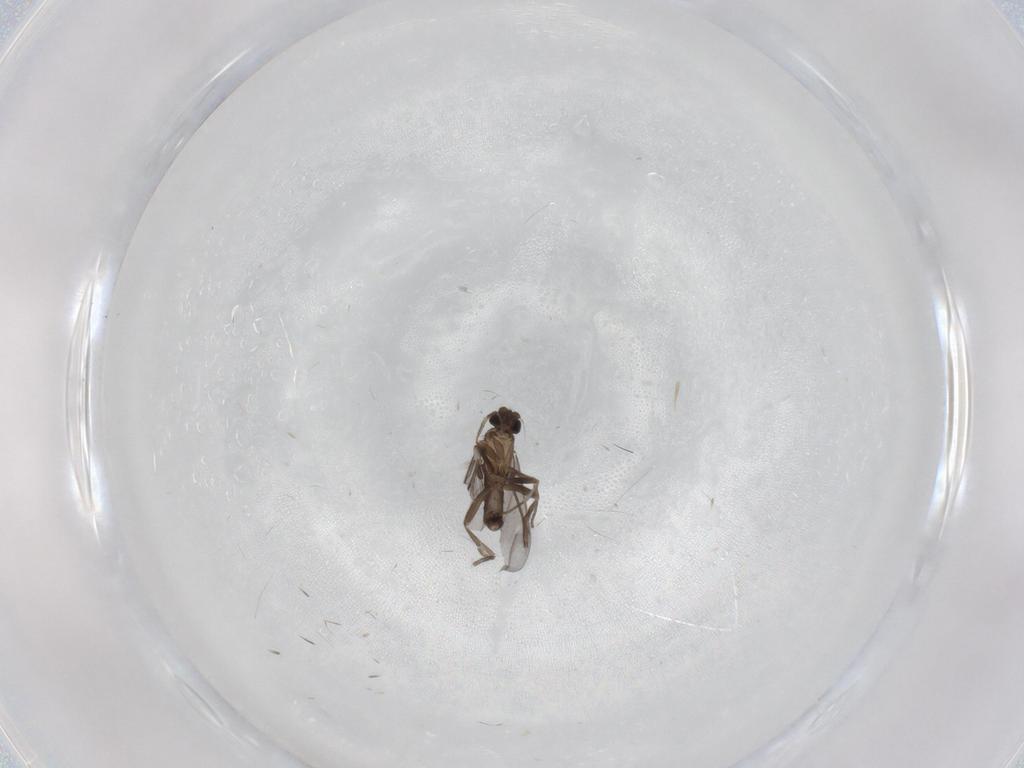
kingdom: Animalia
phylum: Arthropoda
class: Insecta
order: Diptera
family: Phoridae
